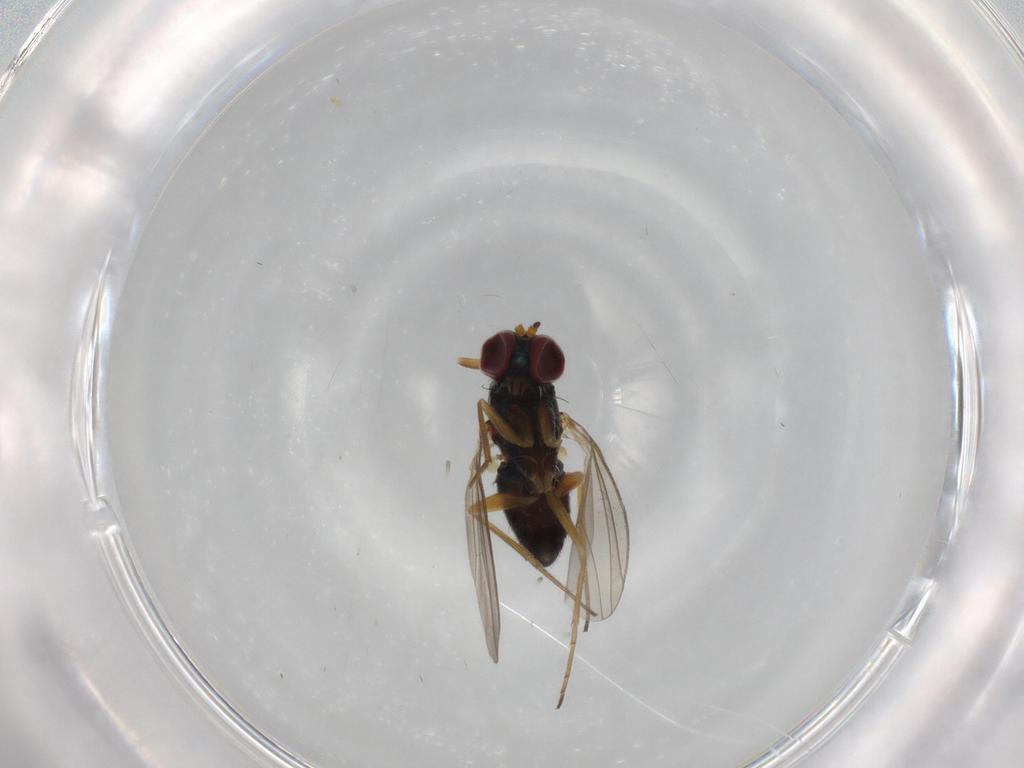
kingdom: Animalia
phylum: Arthropoda
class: Insecta
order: Diptera
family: Dolichopodidae
